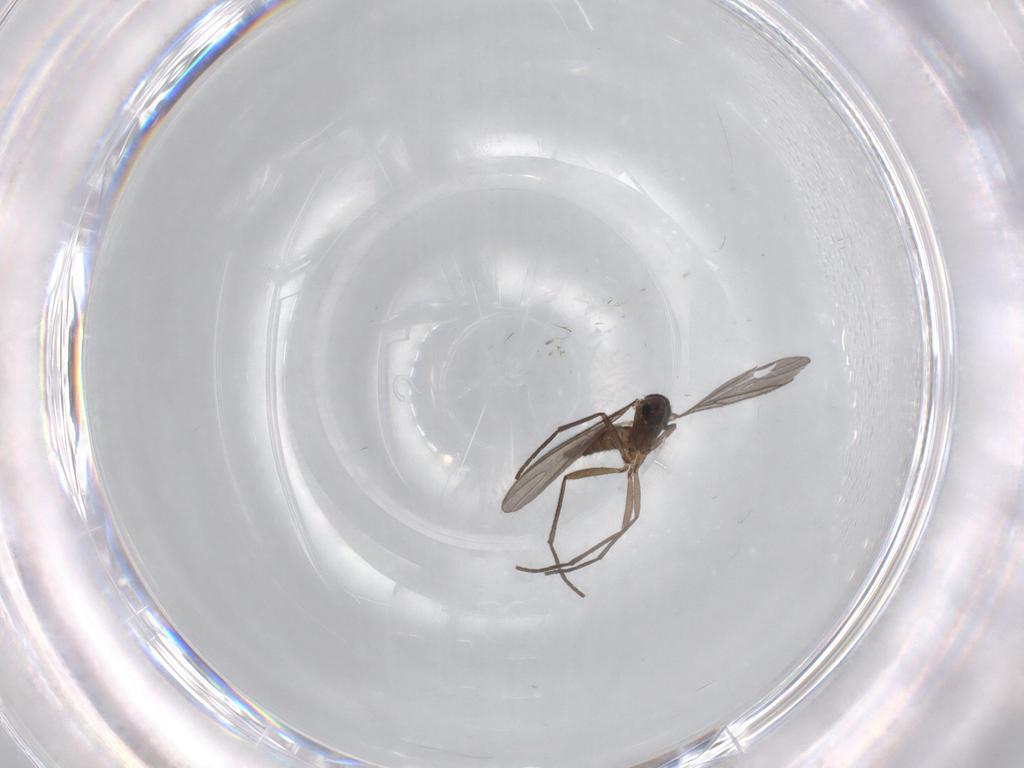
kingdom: Animalia
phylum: Arthropoda
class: Insecta
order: Diptera
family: Sciaridae
